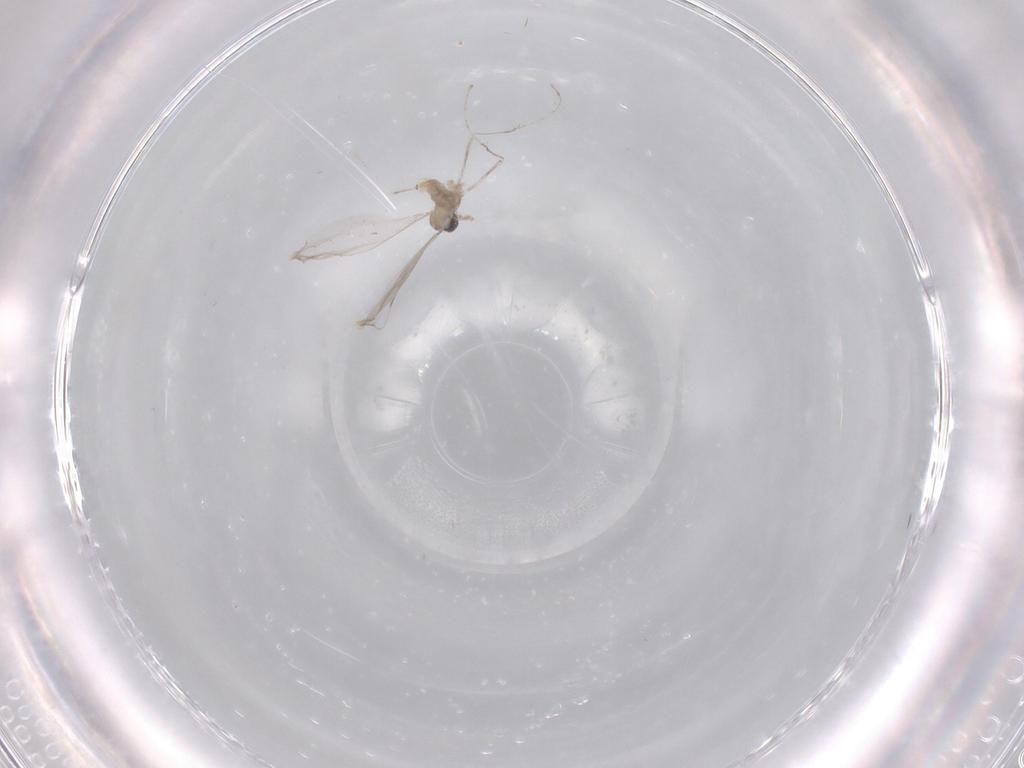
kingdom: Animalia
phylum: Arthropoda
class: Insecta
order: Diptera
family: Cecidomyiidae
